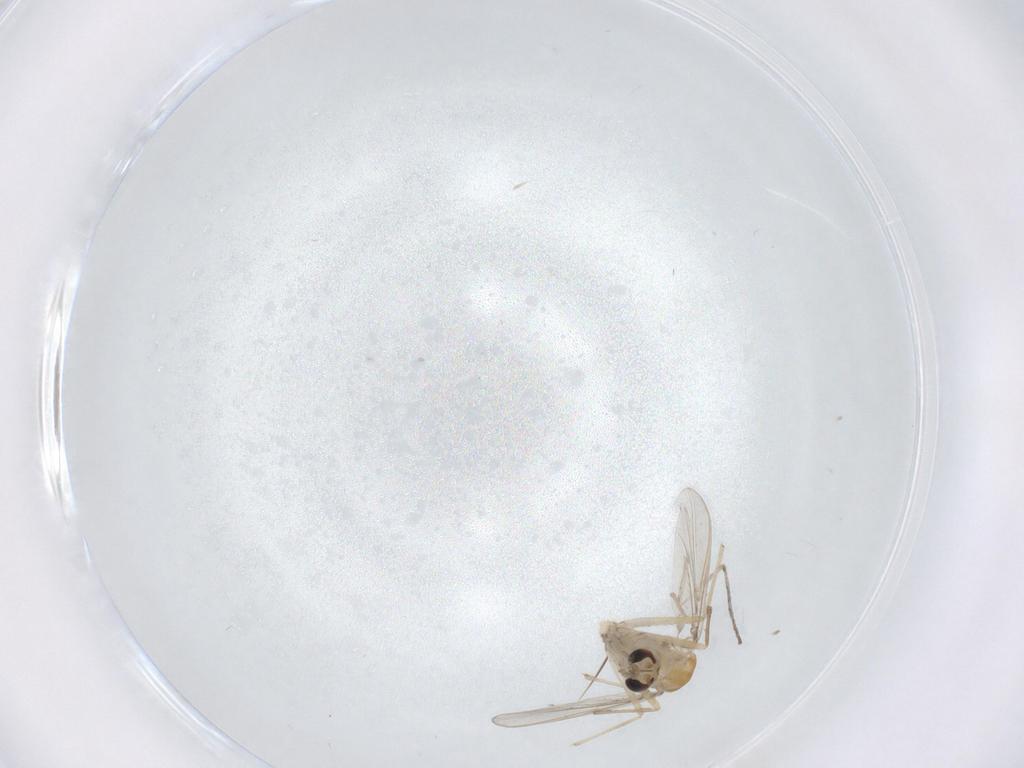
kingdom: Animalia
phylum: Arthropoda
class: Insecta
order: Diptera
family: Chironomidae
